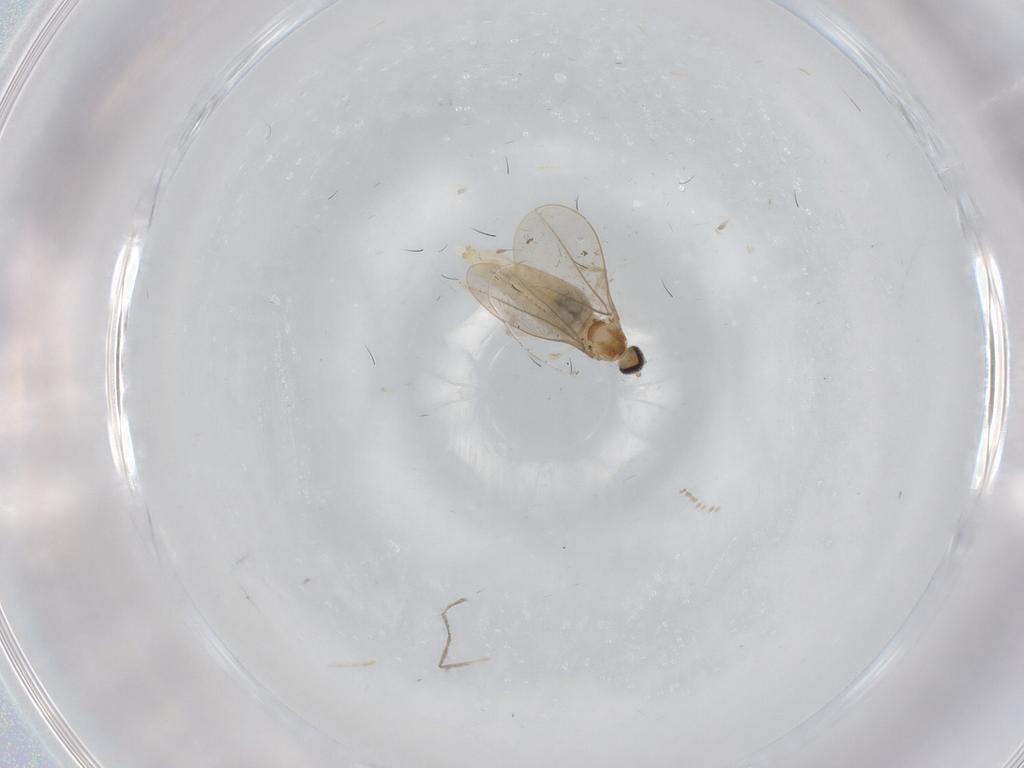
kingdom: Animalia
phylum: Arthropoda
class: Insecta
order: Diptera
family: Cecidomyiidae
